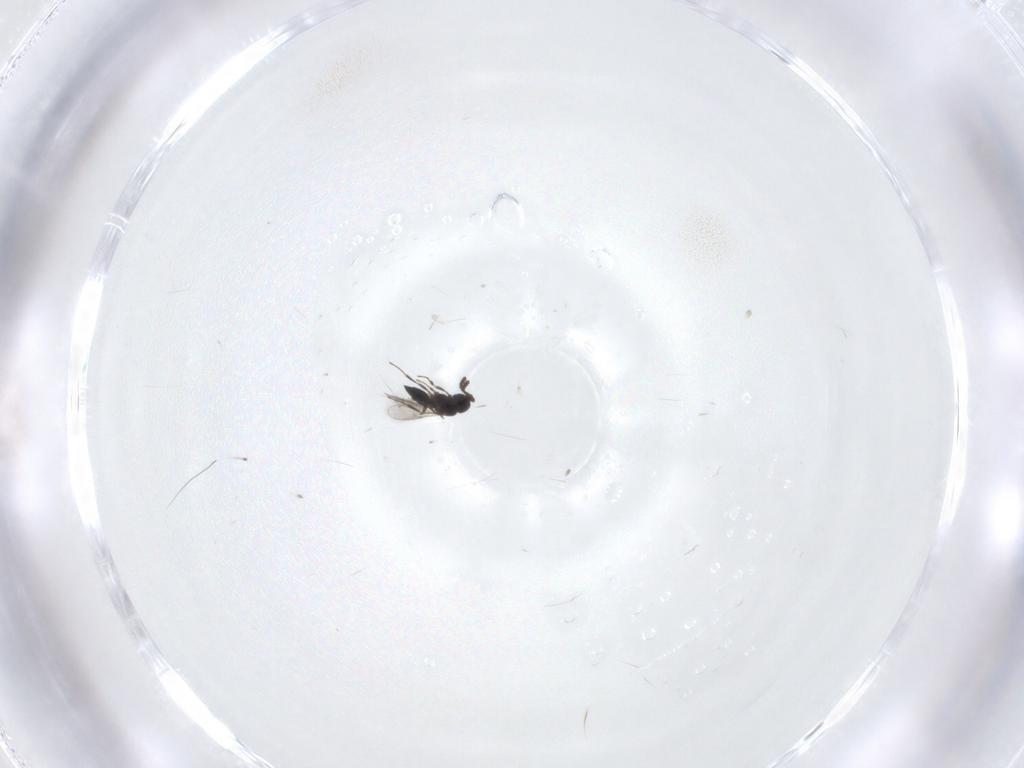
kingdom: Animalia
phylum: Arthropoda
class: Insecta
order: Hymenoptera
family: Scelionidae
